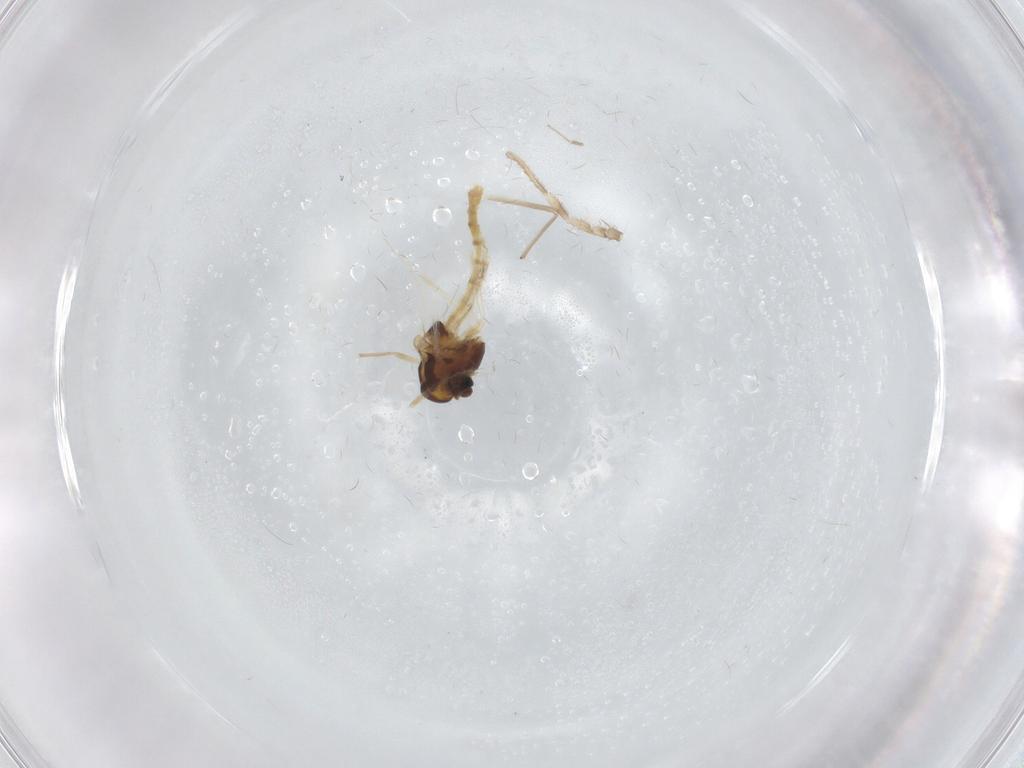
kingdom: Animalia
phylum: Arthropoda
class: Insecta
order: Diptera
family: Chironomidae
